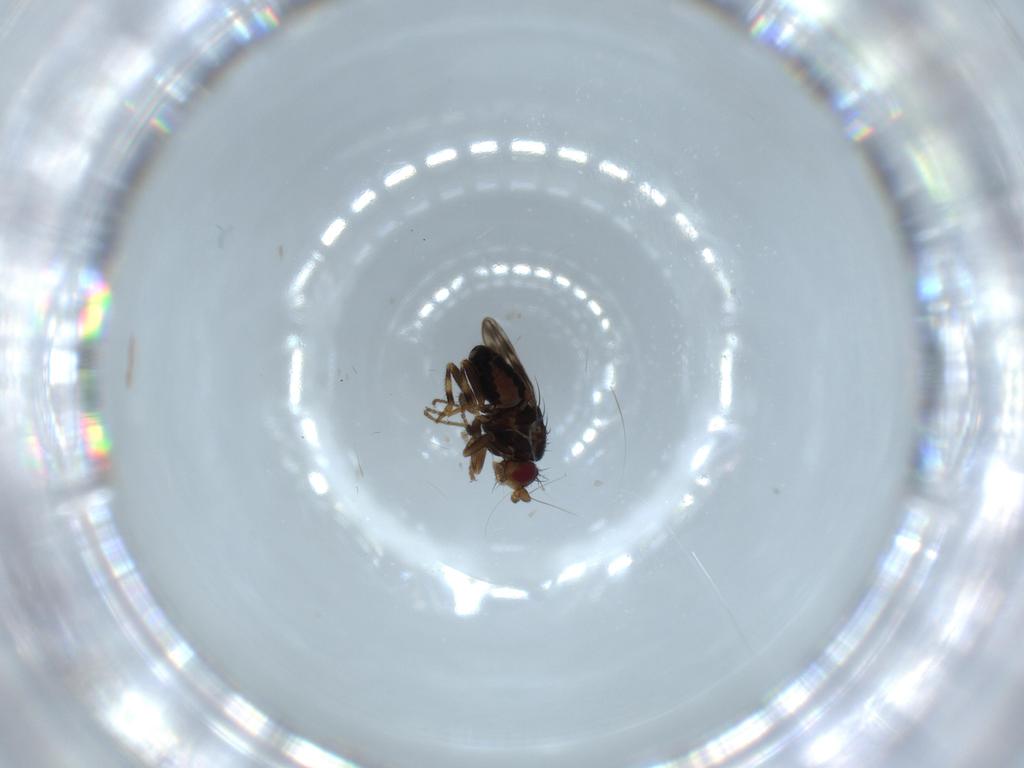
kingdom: Animalia
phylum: Arthropoda
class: Insecta
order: Diptera
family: Sphaeroceridae
